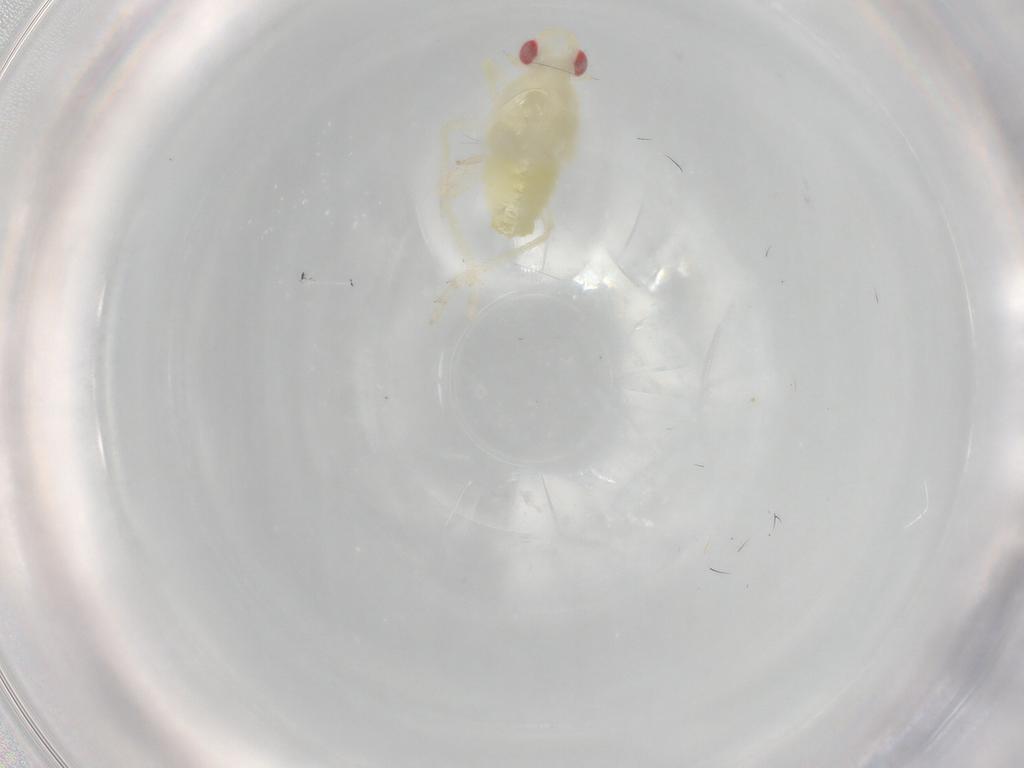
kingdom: Animalia
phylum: Arthropoda
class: Insecta
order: Hemiptera
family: Tropiduchidae
